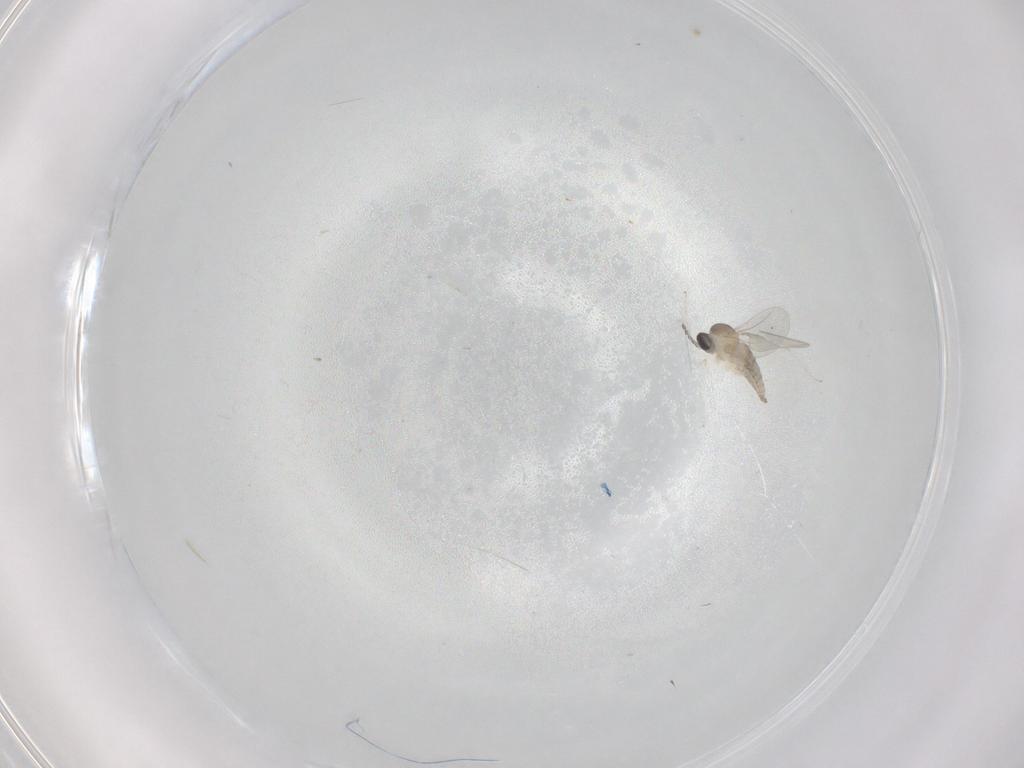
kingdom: Animalia
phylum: Arthropoda
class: Insecta
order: Diptera
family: Cecidomyiidae
